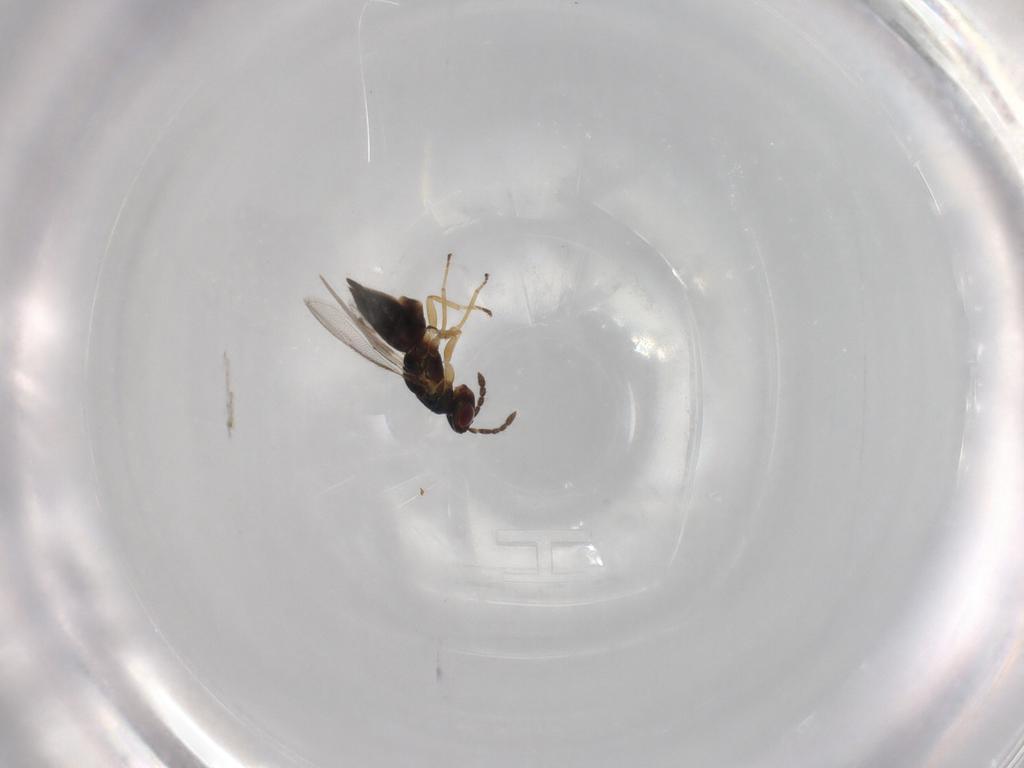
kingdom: Animalia
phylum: Arthropoda
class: Insecta
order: Hymenoptera
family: Eulophidae
